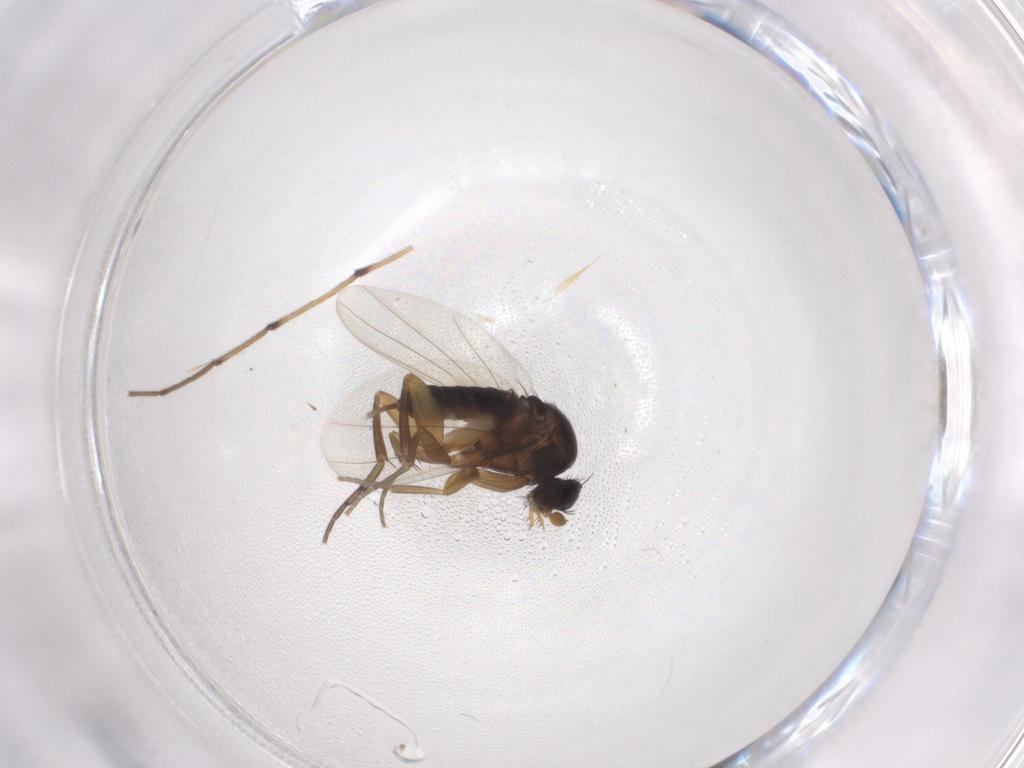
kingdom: Animalia
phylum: Arthropoda
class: Insecta
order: Diptera
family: Phoridae
